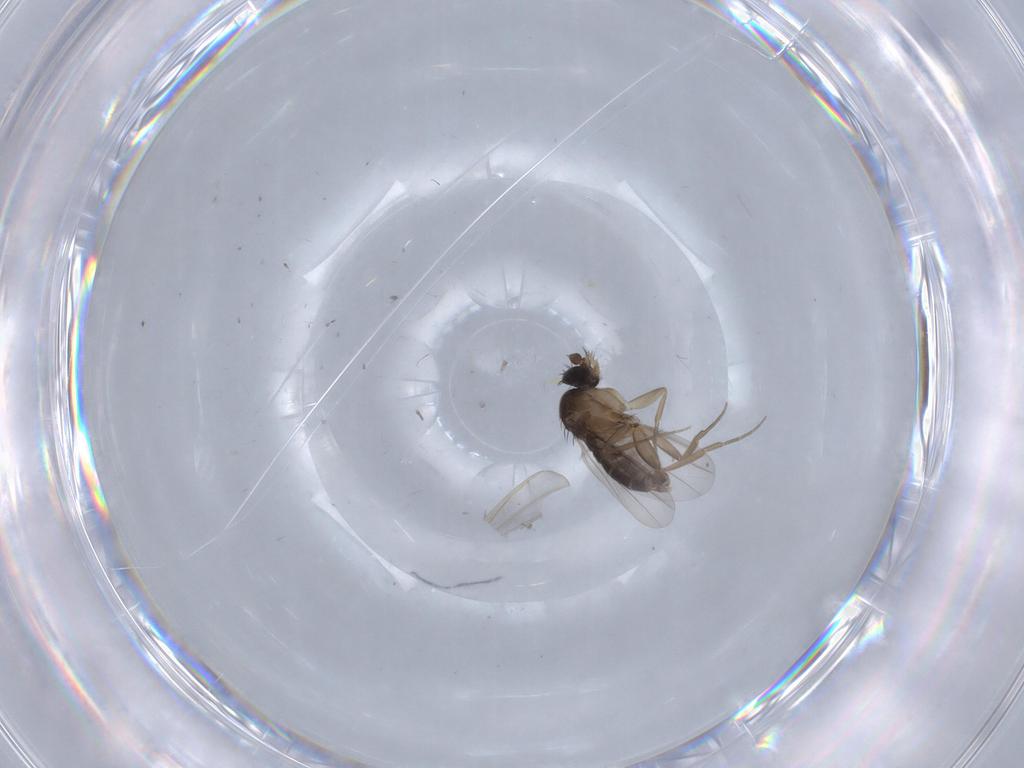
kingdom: Animalia
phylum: Arthropoda
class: Insecta
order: Diptera
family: Phoridae
